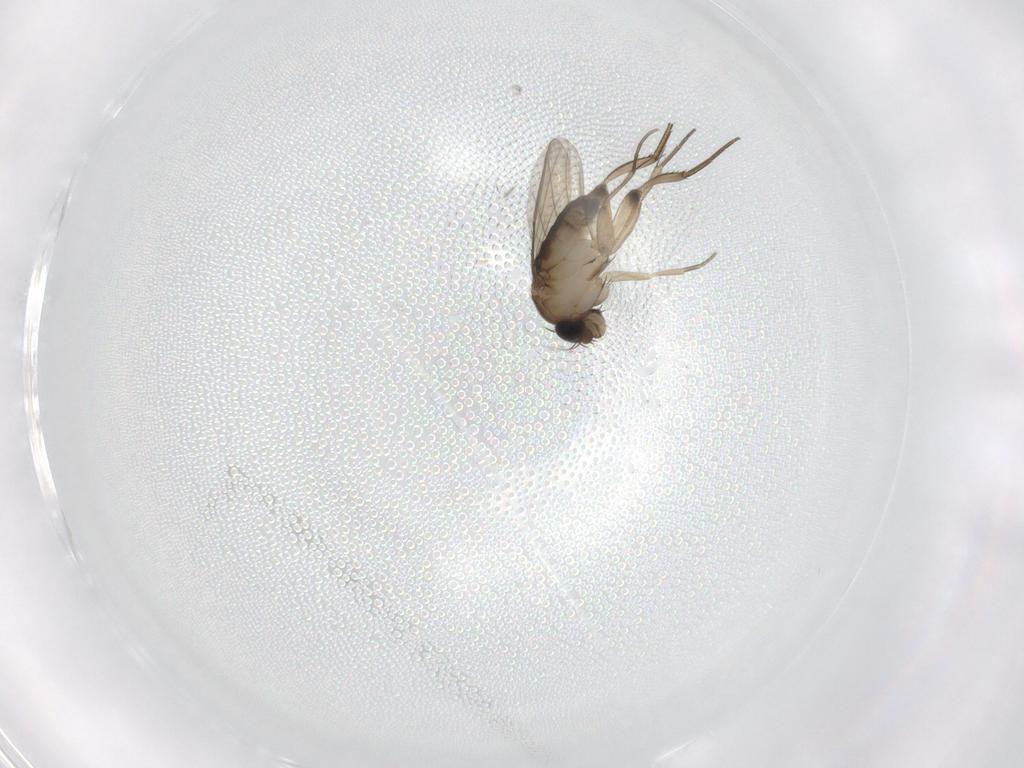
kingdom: Animalia
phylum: Arthropoda
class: Insecta
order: Diptera
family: Phoridae
